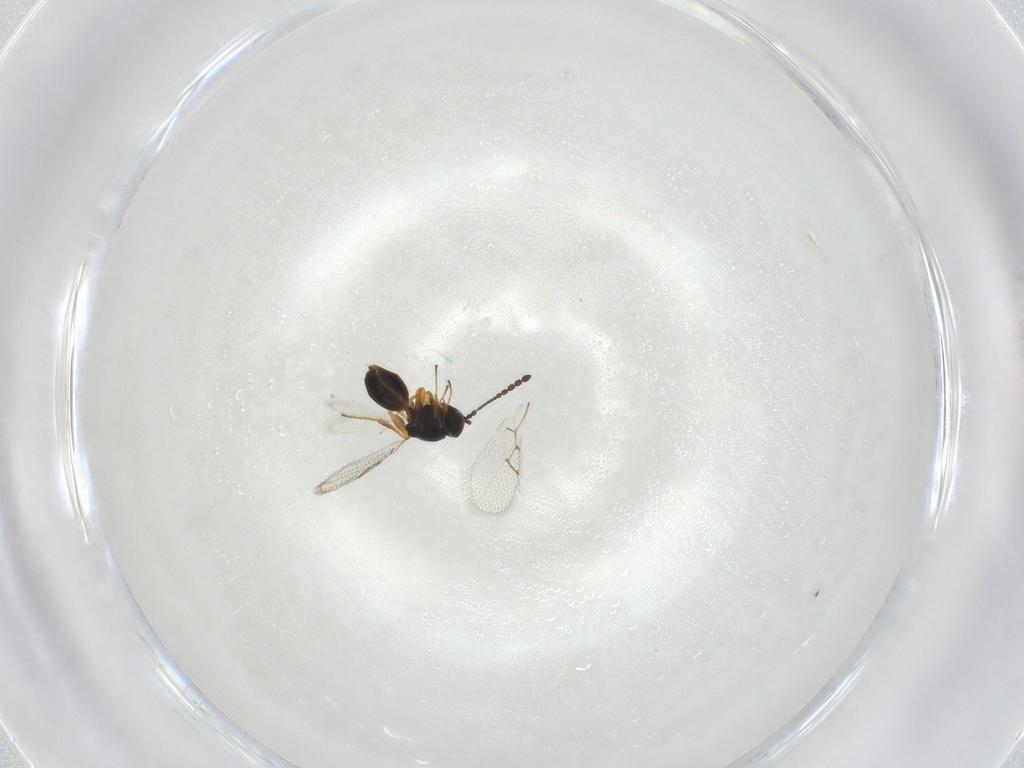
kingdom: Animalia
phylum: Arthropoda
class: Insecta
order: Hymenoptera
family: Figitidae
